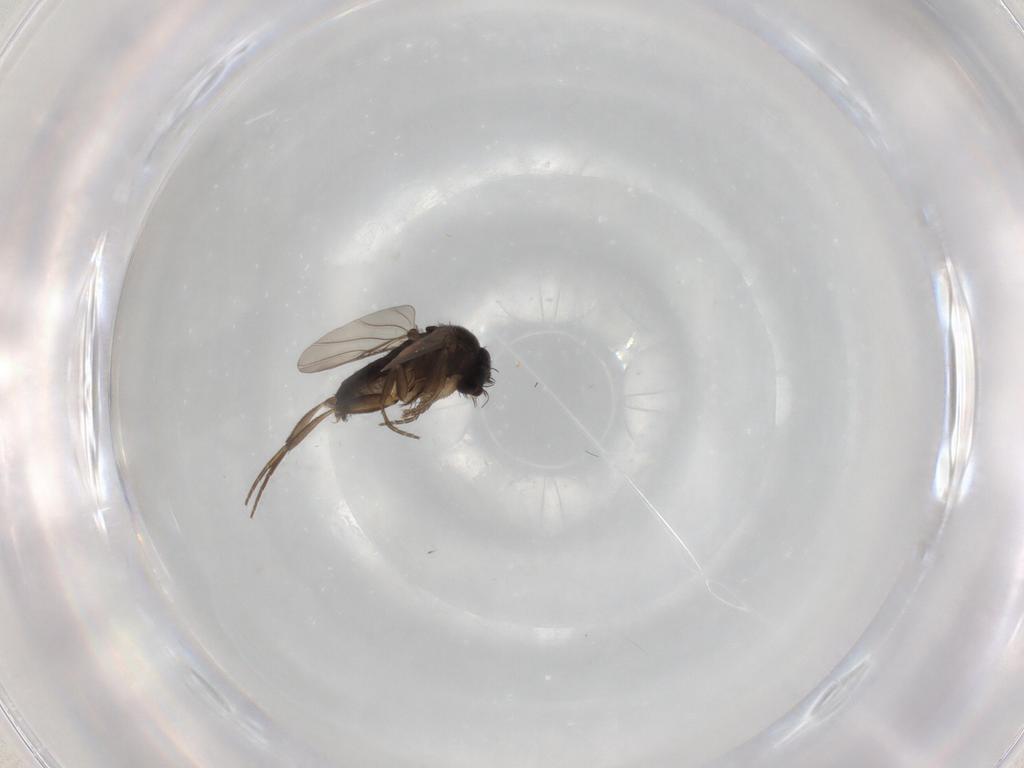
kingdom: Animalia
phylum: Arthropoda
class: Insecta
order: Diptera
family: Phoridae
